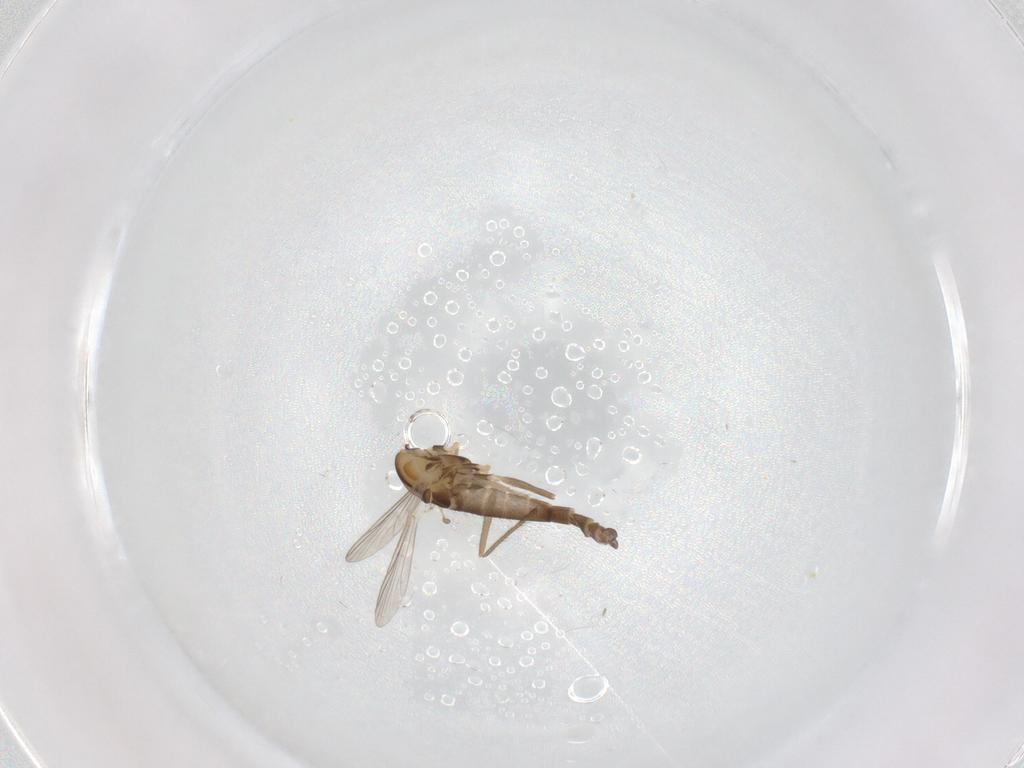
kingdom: Animalia
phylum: Arthropoda
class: Insecta
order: Diptera
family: Chironomidae
